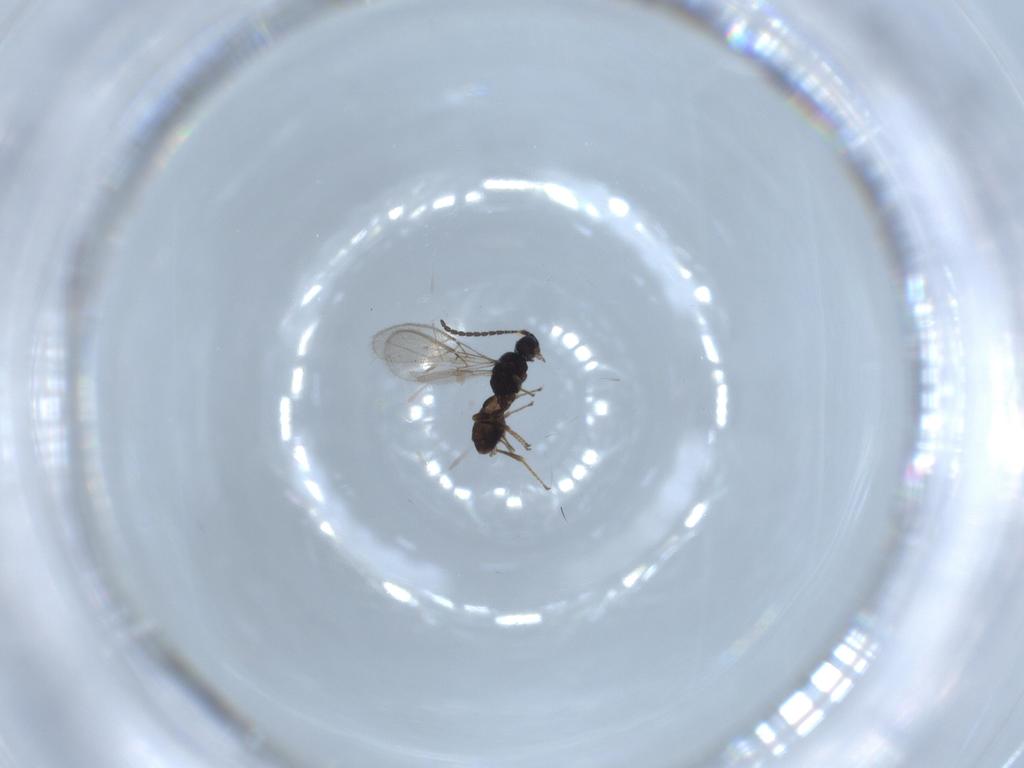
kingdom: Animalia
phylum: Arthropoda
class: Insecta
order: Hymenoptera
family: Braconidae
